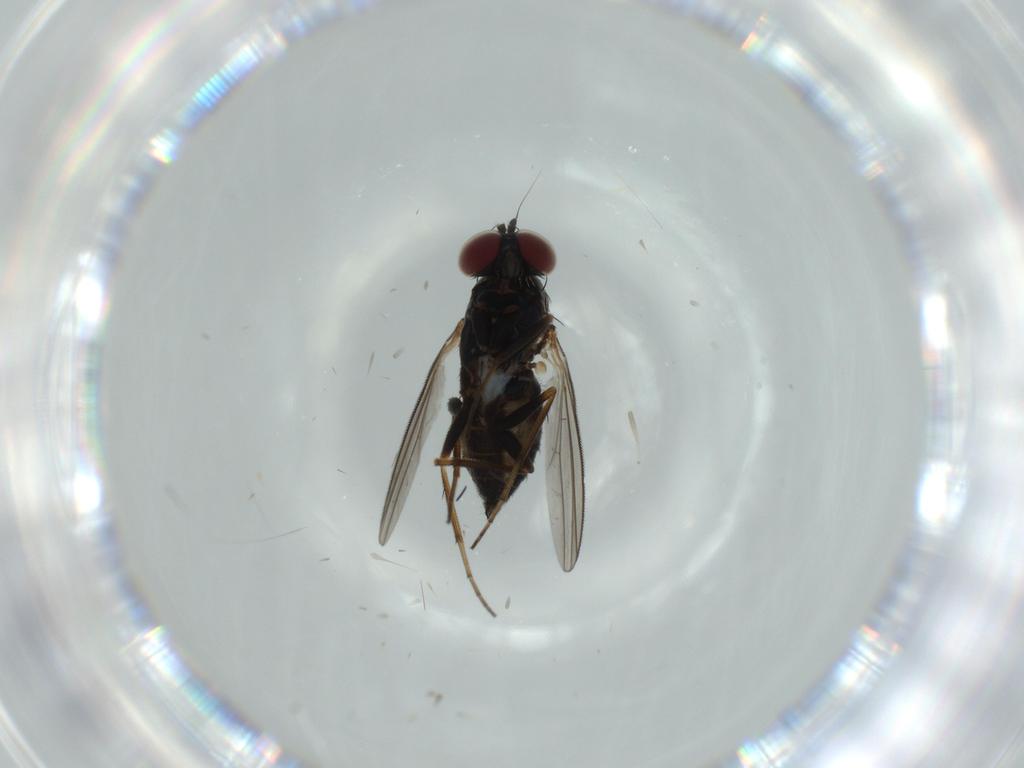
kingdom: Animalia
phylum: Arthropoda
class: Insecta
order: Diptera
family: Dolichopodidae
